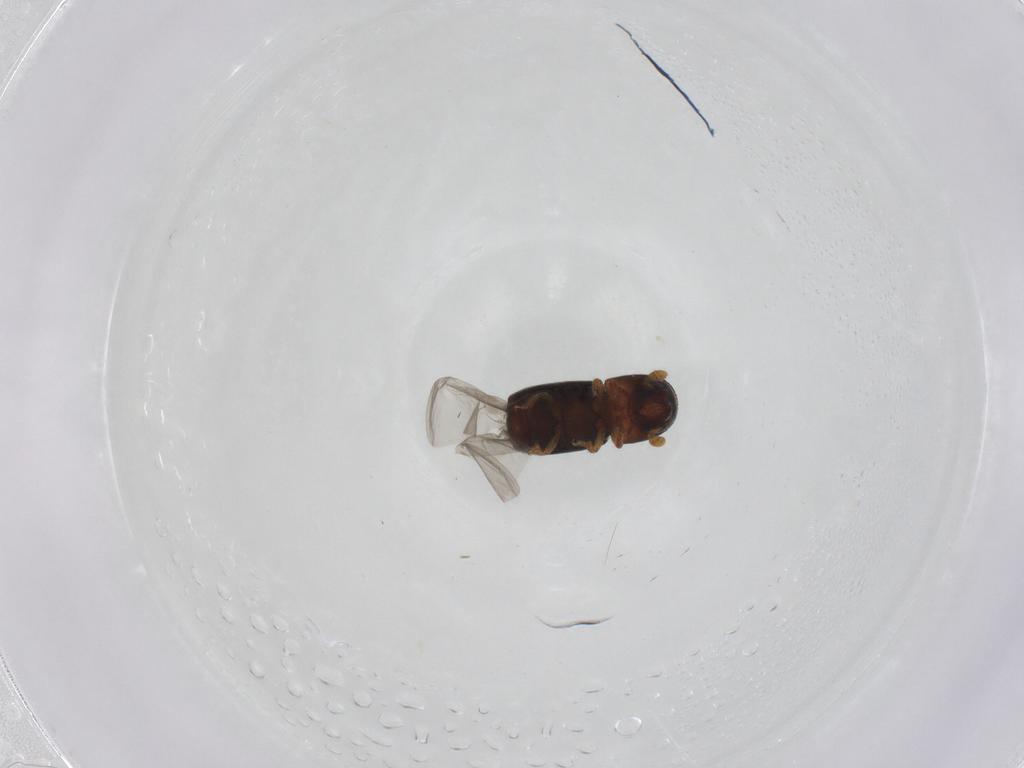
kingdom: Animalia
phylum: Arthropoda
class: Insecta
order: Coleoptera
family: Curculionidae
